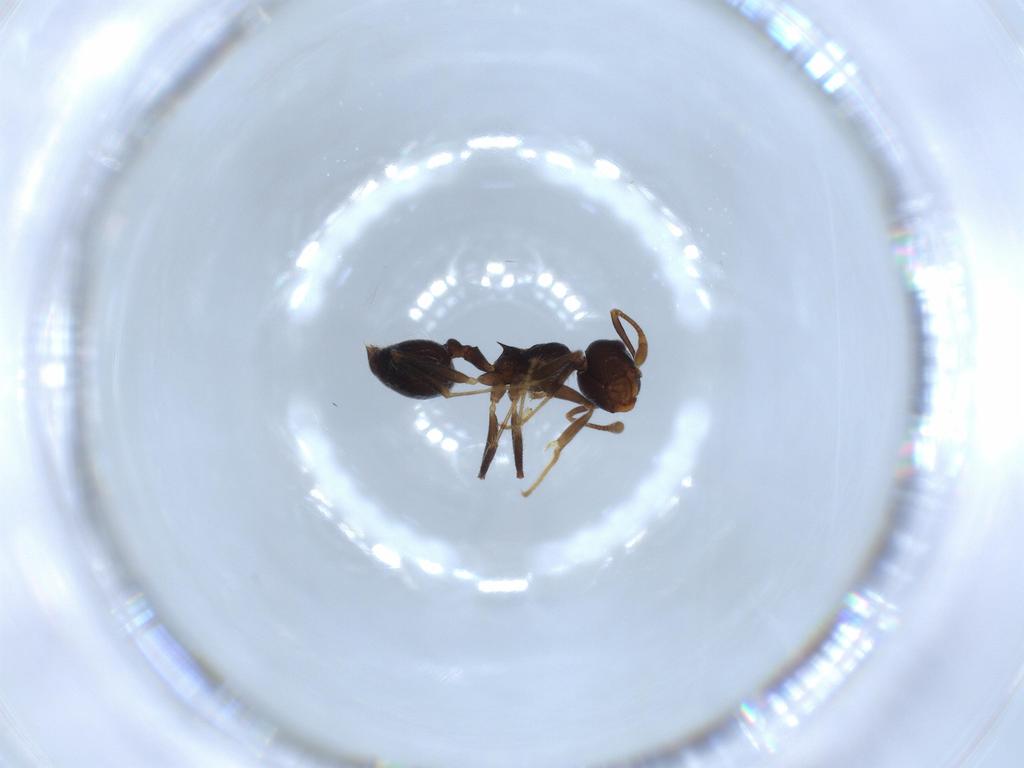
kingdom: Animalia
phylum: Arthropoda
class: Insecta
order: Hymenoptera
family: Formicidae
